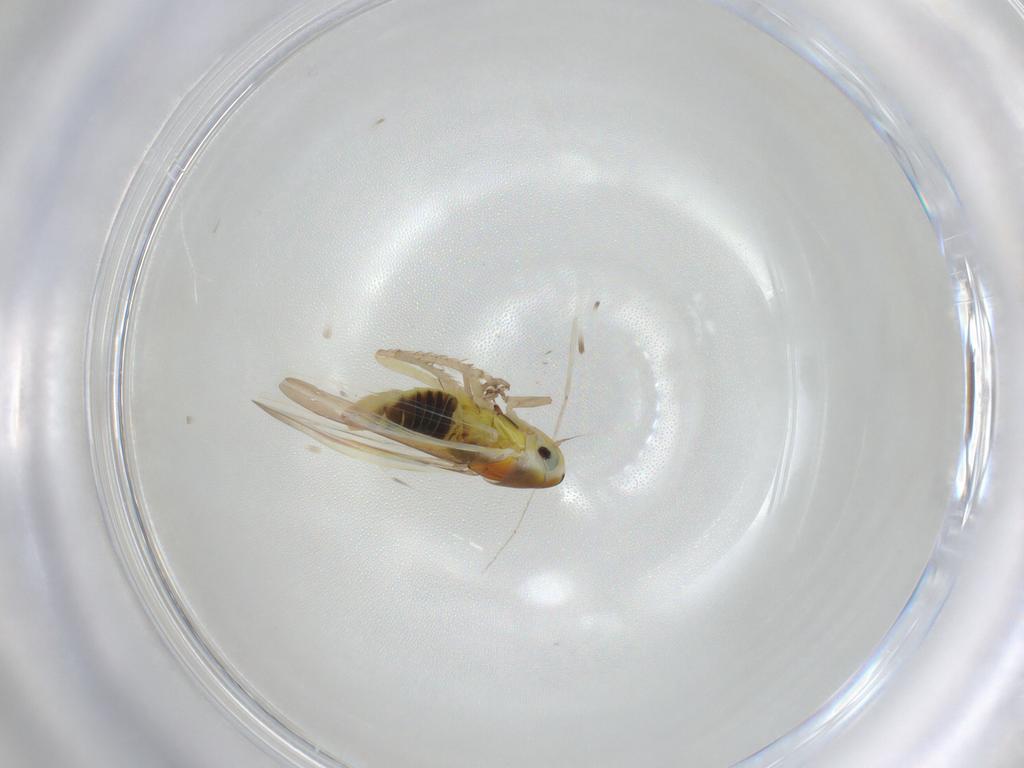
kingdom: Animalia
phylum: Arthropoda
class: Insecta
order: Hemiptera
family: Cicadellidae
